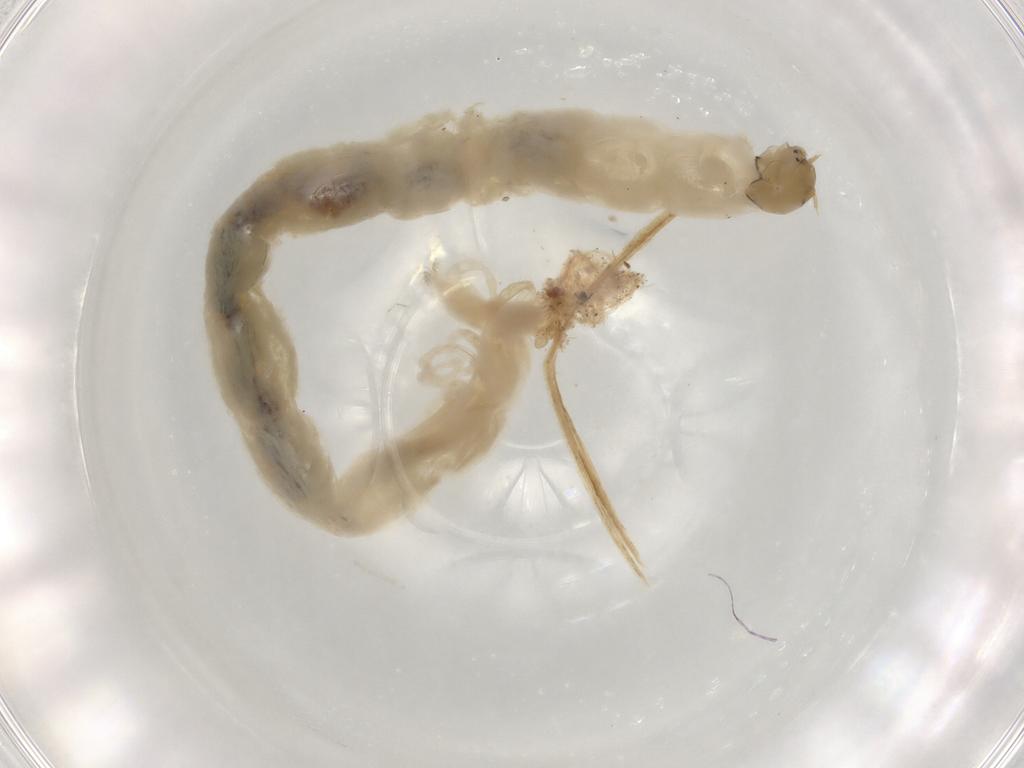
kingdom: Animalia
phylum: Arthropoda
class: Insecta
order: Diptera
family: Chironomidae
